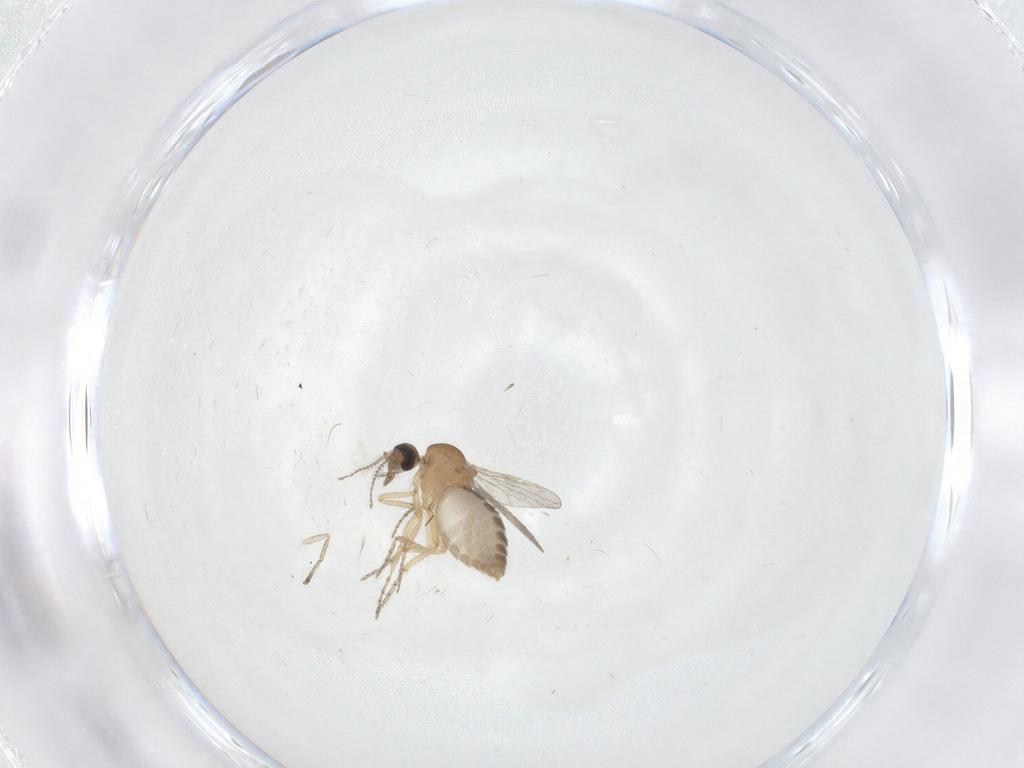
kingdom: Animalia
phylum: Arthropoda
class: Insecta
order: Diptera
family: Ceratopogonidae
